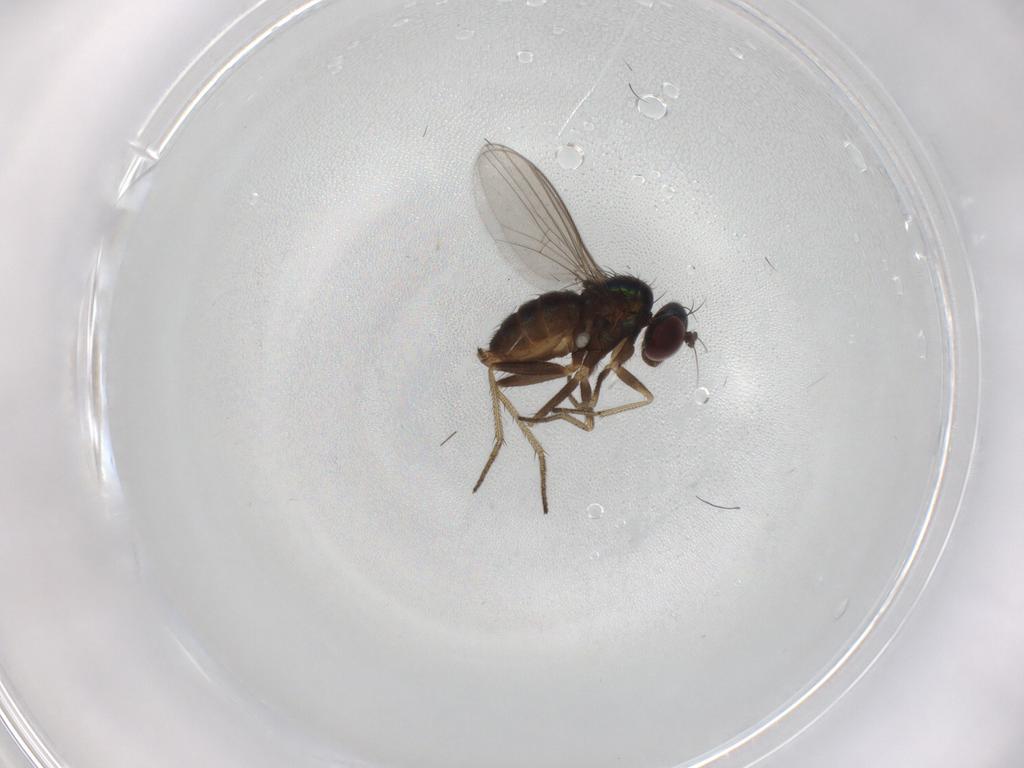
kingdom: Animalia
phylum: Arthropoda
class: Insecta
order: Diptera
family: Dolichopodidae
